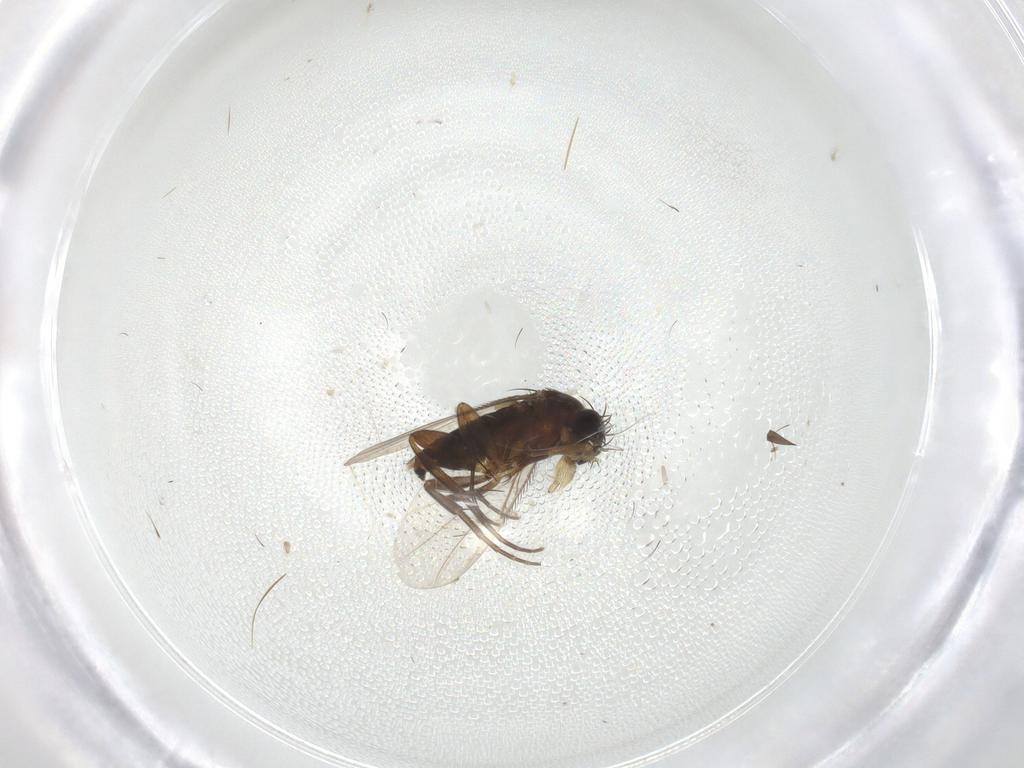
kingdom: Animalia
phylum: Arthropoda
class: Insecta
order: Diptera
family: Phoridae
